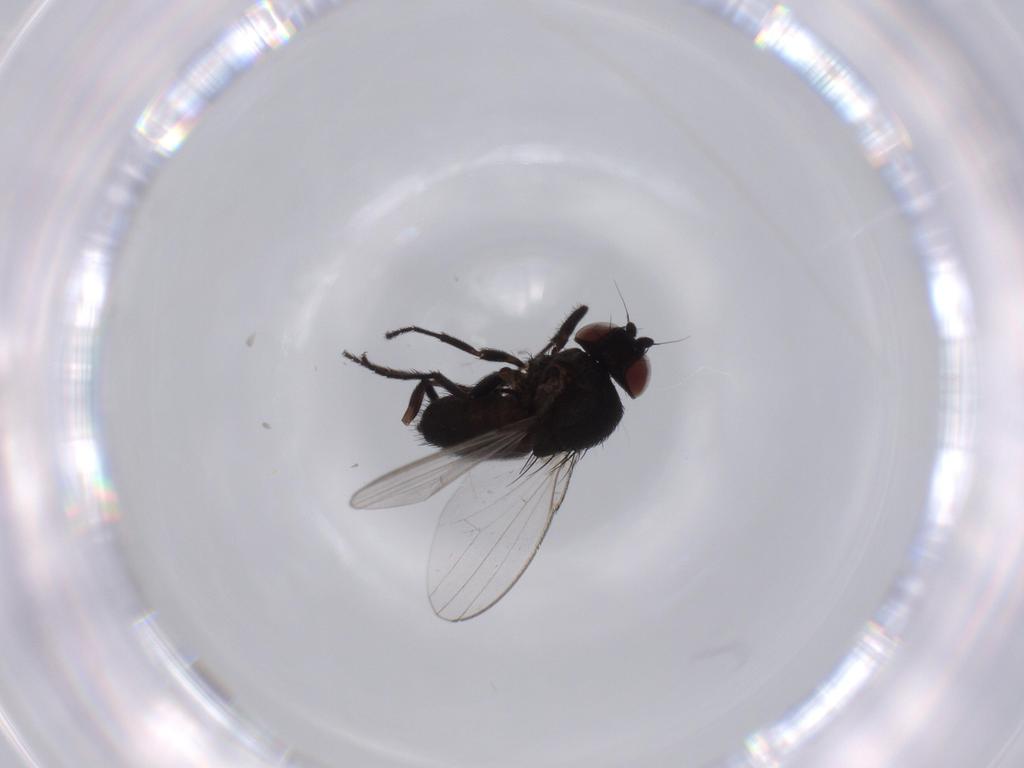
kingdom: Animalia
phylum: Arthropoda
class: Insecta
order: Diptera
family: Milichiidae
